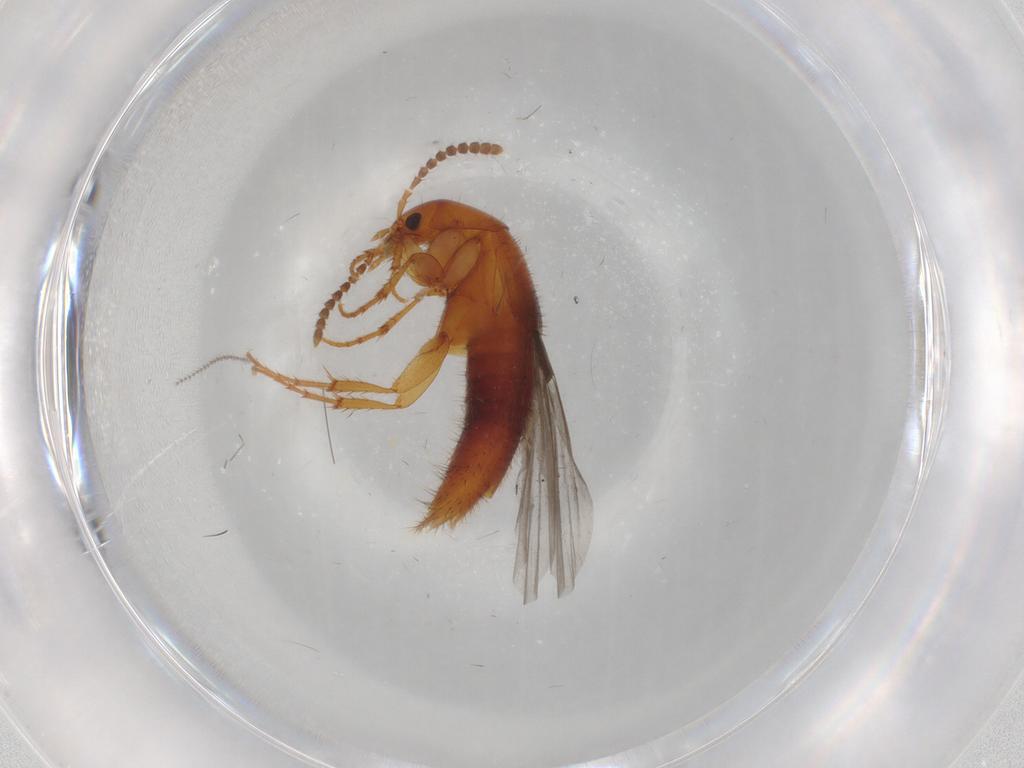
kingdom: Animalia
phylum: Arthropoda
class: Insecta
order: Coleoptera
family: Staphylinidae
